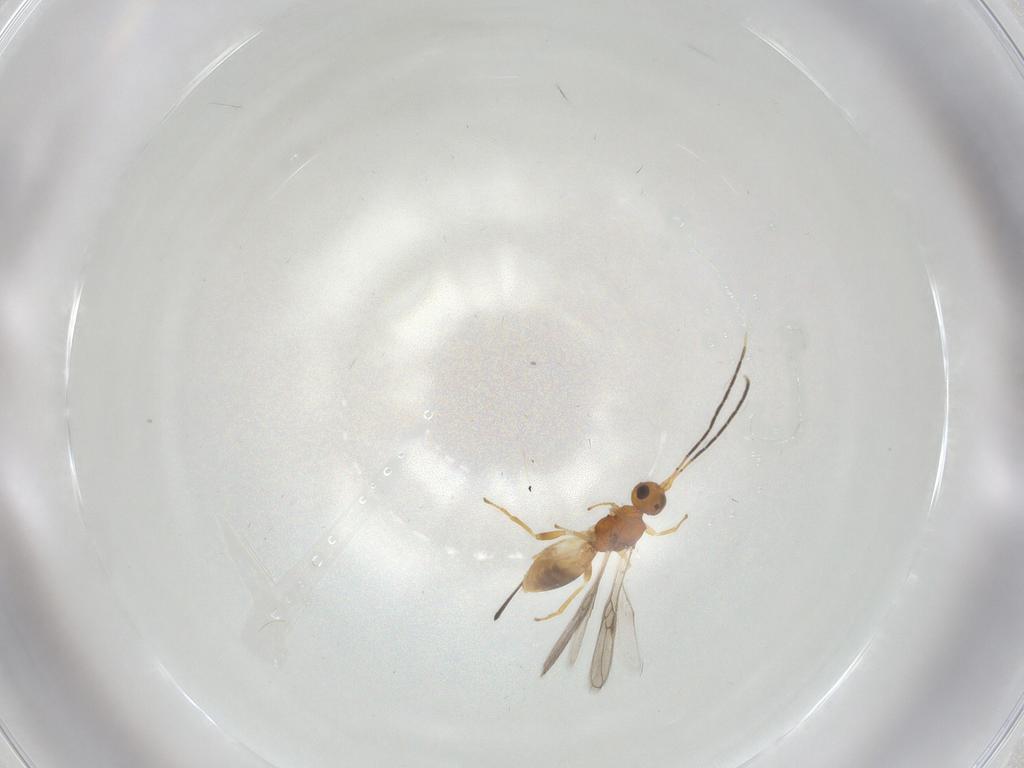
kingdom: Animalia
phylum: Arthropoda
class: Insecta
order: Hymenoptera
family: Braconidae
